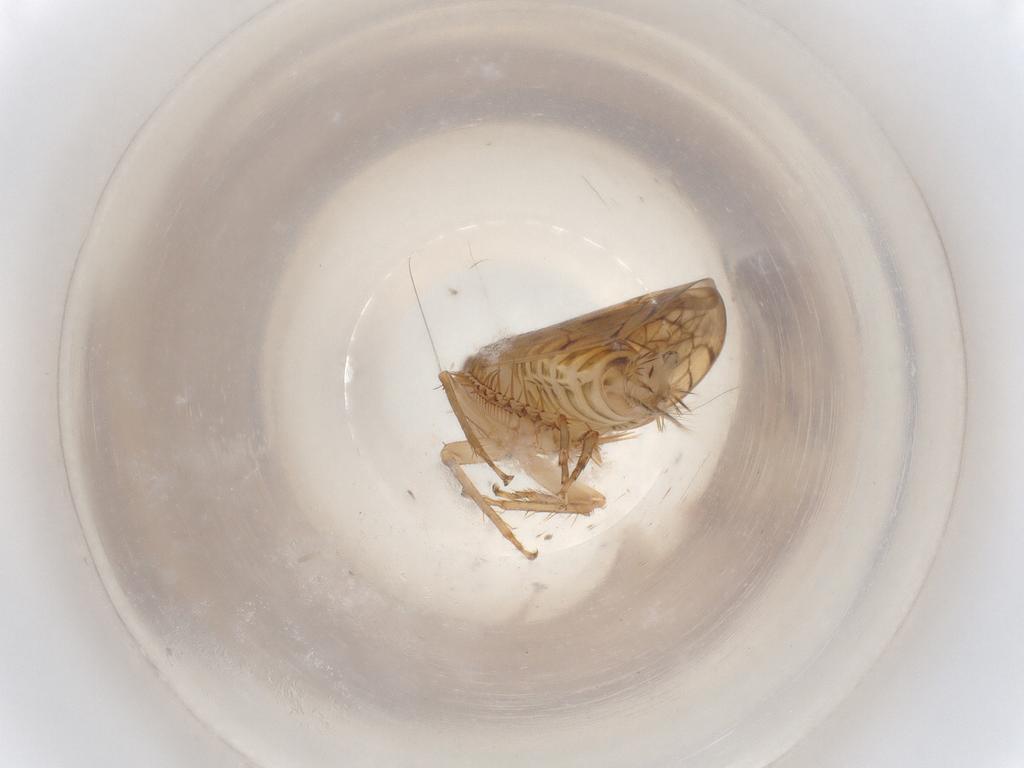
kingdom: Animalia
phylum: Arthropoda
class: Insecta
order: Hemiptera
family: Cicadellidae
